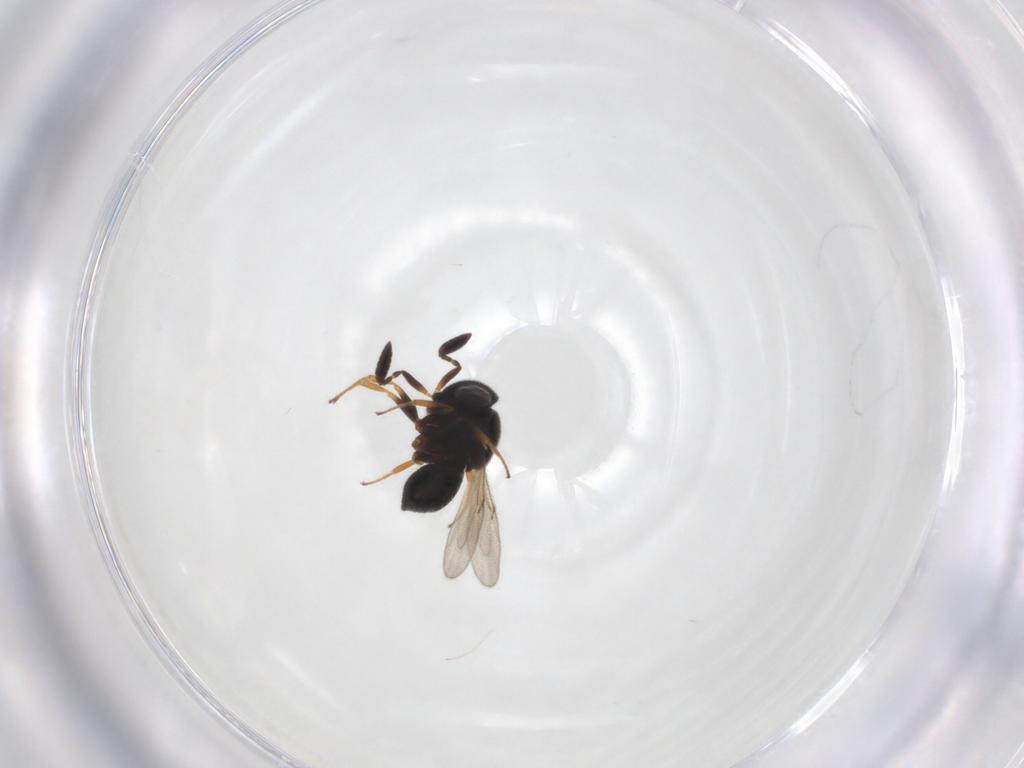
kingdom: Animalia
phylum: Arthropoda
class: Insecta
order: Hymenoptera
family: Scelionidae
